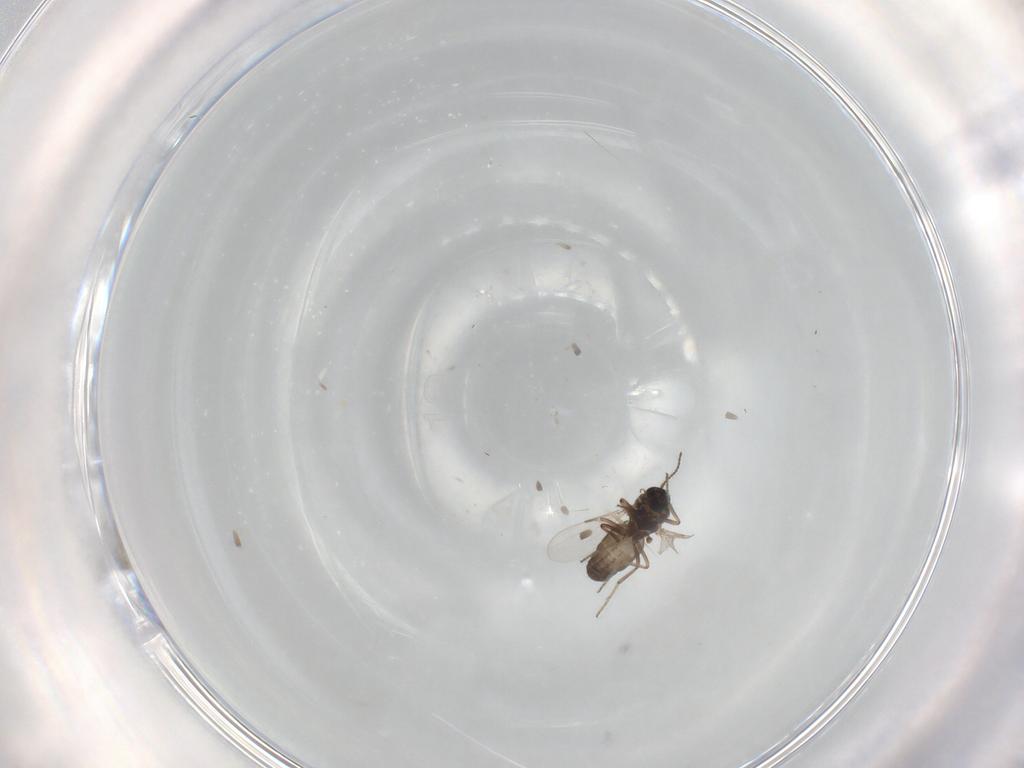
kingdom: Animalia
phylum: Arthropoda
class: Insecta
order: Diptera
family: Ceratopogonidae
